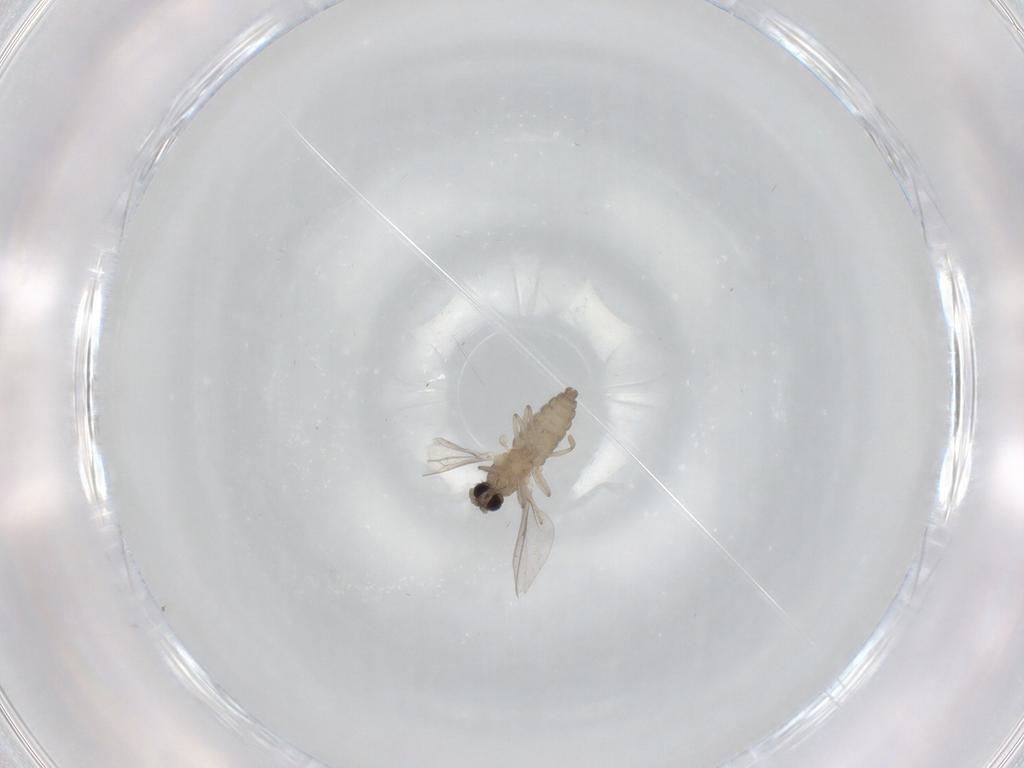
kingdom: Animalia
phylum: Arthropoda
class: Insecta
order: Diptera
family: Cecidomyiidae
